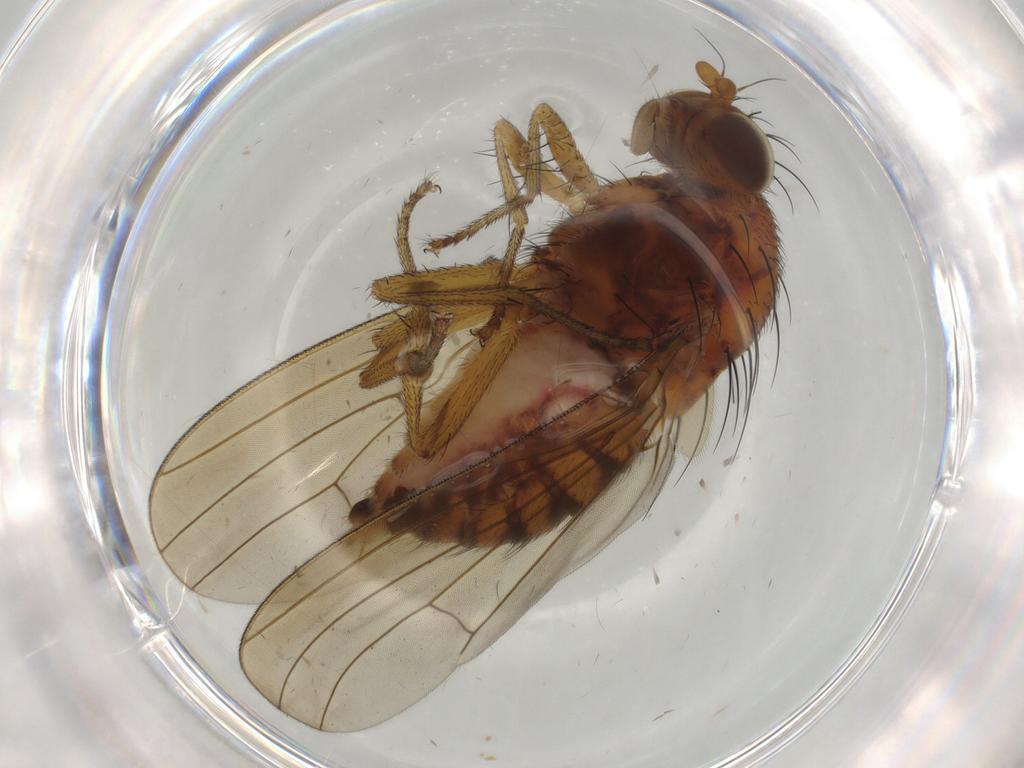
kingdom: Animalia
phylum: Arthropoda
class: Insecta
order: Diptera
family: Lauxaniidae
